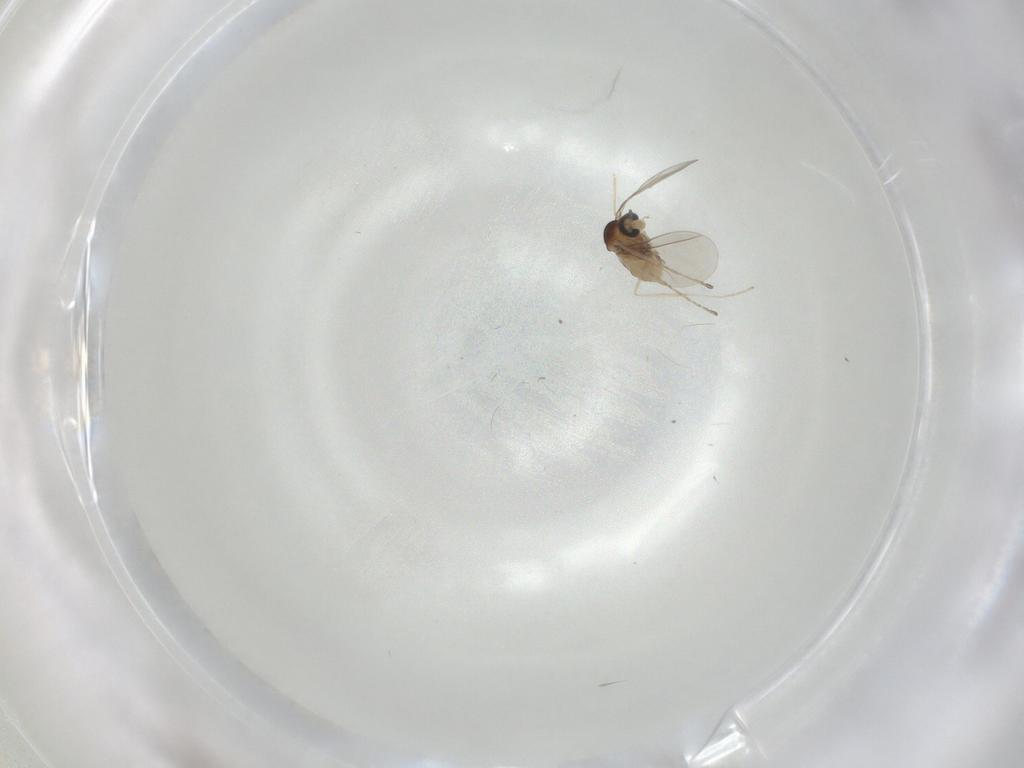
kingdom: Animalia
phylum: Arthropoda
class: Insecta
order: Diptera
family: Cecidomyiidae
